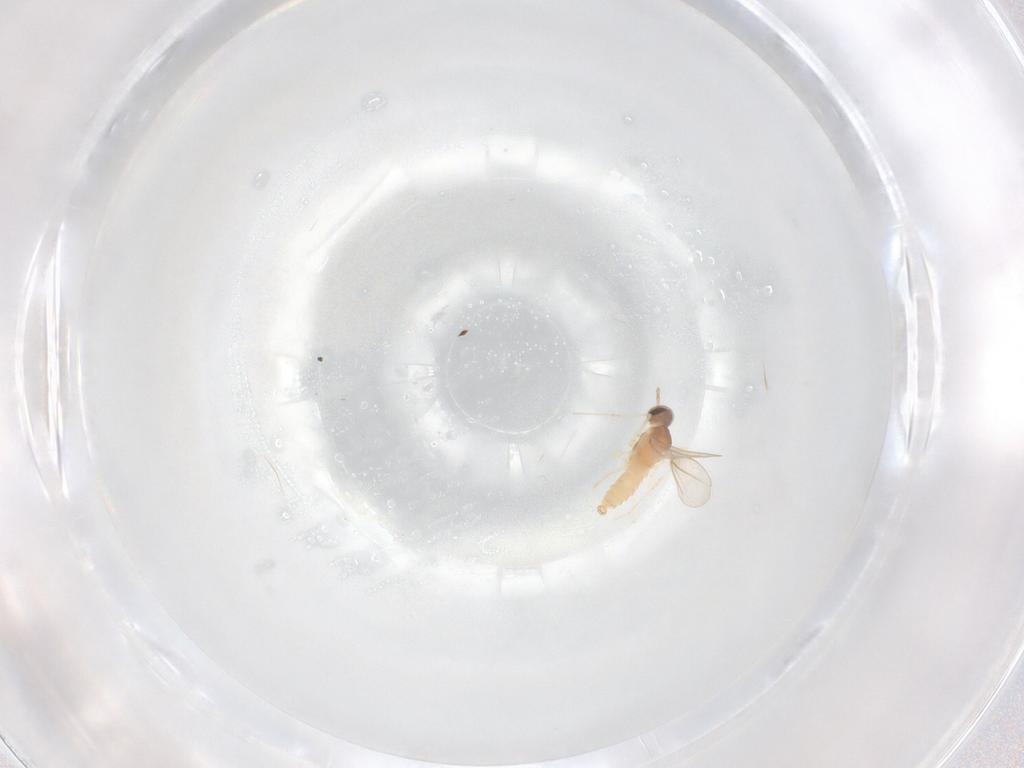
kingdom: Animalia
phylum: Arthropoda
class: Insecta
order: Diptera
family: Cecidomyiidae
